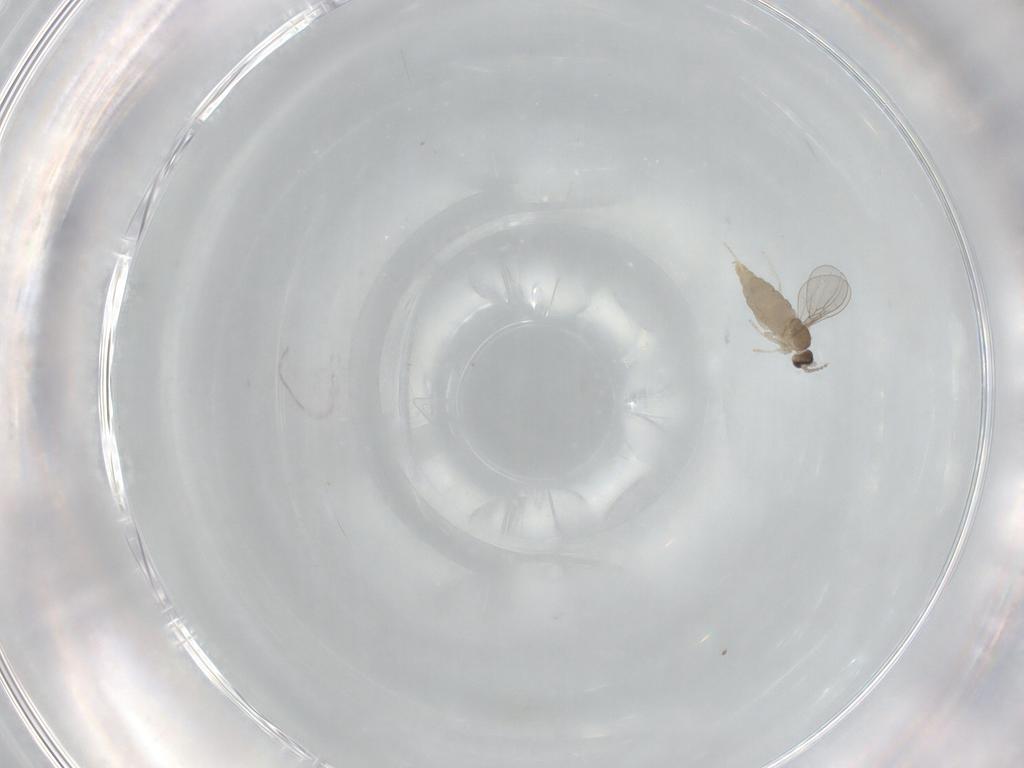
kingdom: Animalia
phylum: Arthropoda
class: Insecta
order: Diptera
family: Cecidomyiidae
